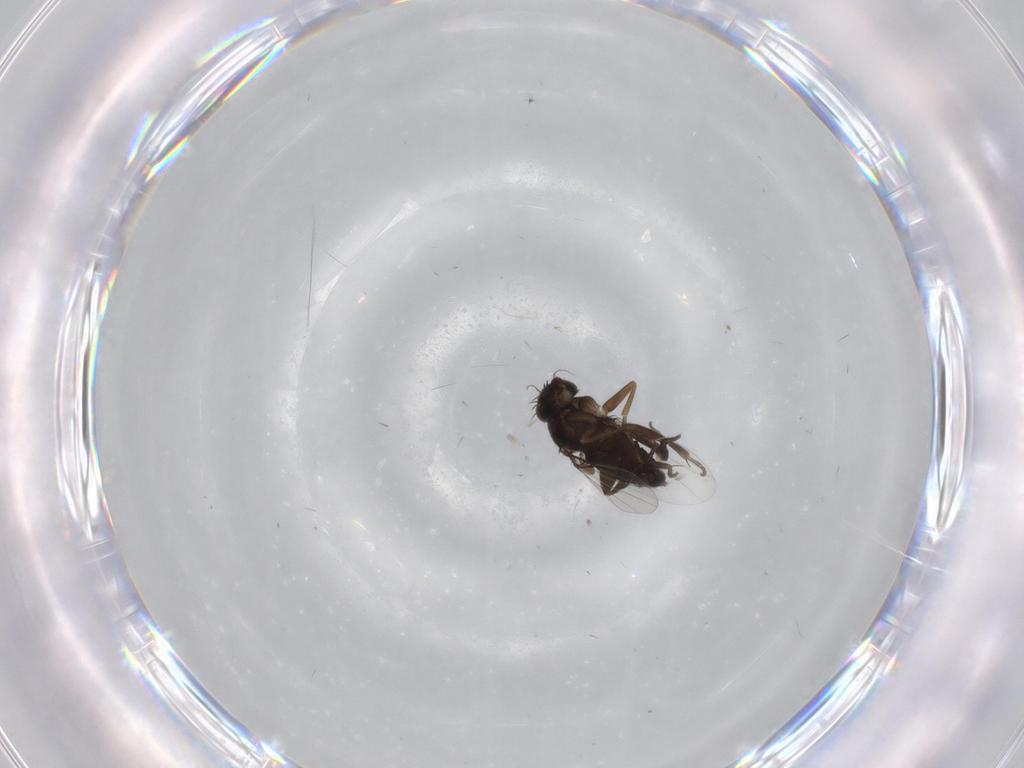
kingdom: Animalia
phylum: Arthropoda
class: Insecta
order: Diptera
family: Phoridae
